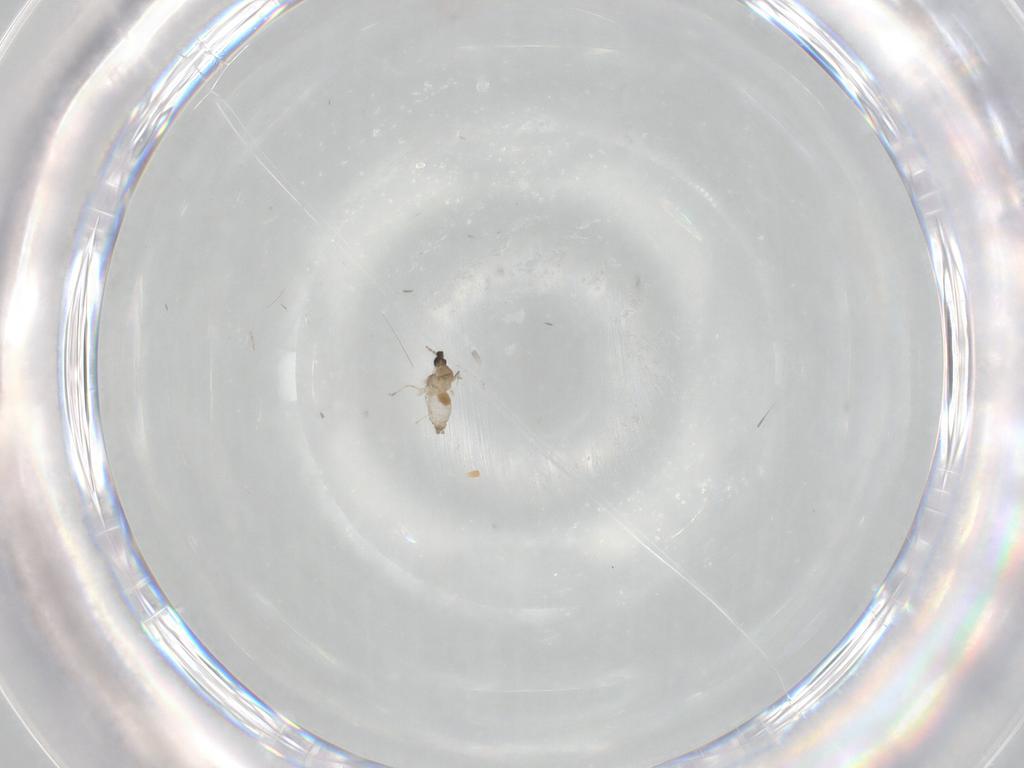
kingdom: Animalia
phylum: Arthropoda
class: Insecta
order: Diptera
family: Cecidomyiidae
